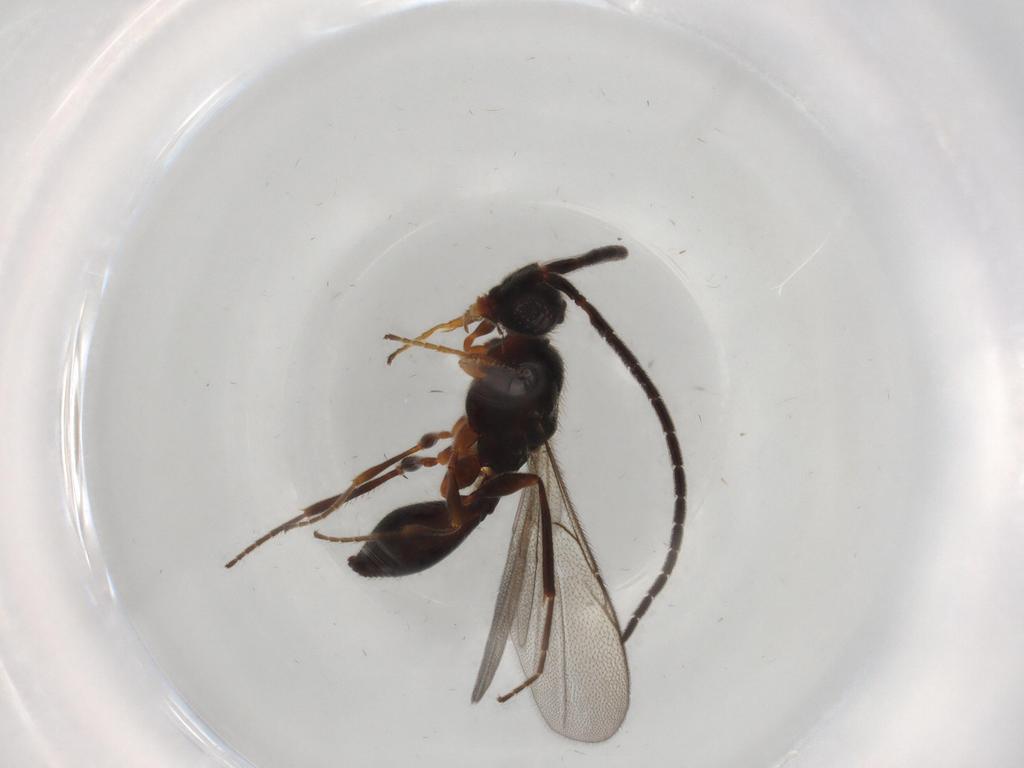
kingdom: Animalia
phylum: Arthropoda
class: Insecta
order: Hymenoptera
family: Diapriidae
